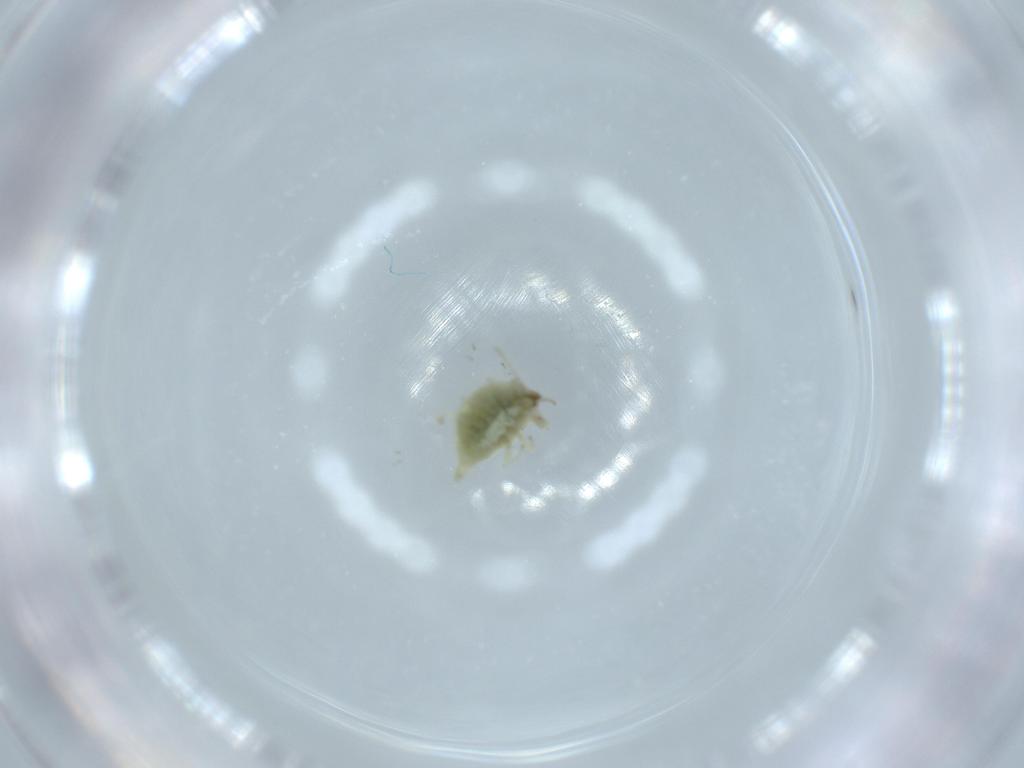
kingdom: Animalia
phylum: Arthropoda
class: Insecta
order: Neuroptera
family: Coniopterygidae
